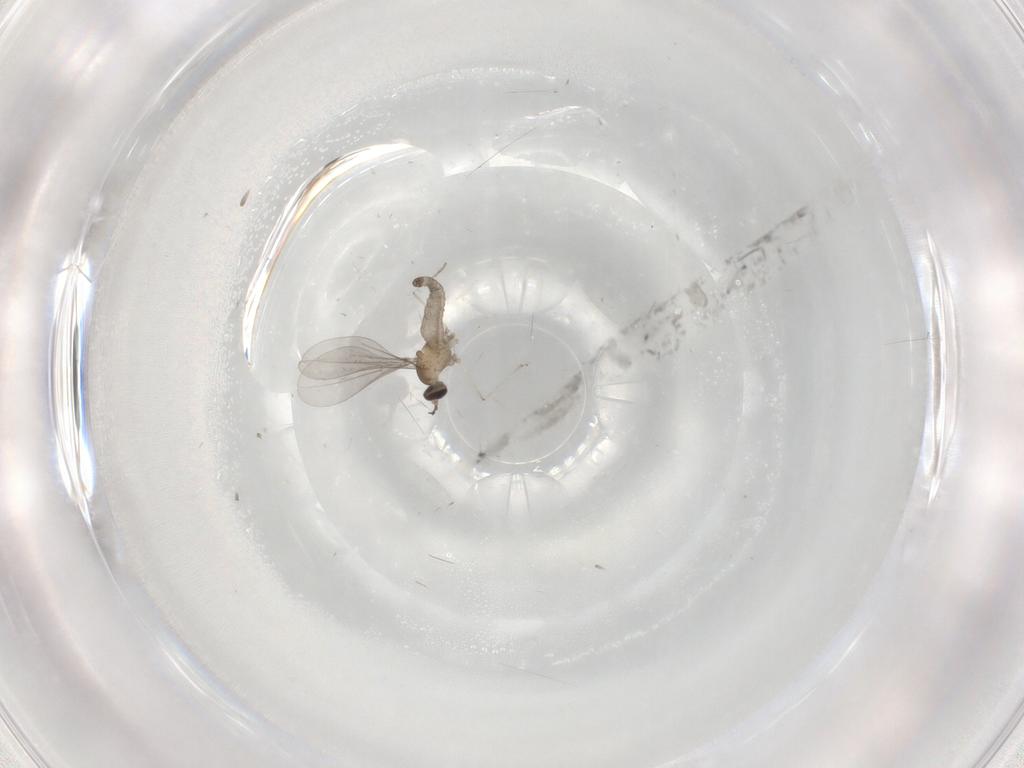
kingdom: Animalia
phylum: Arthropoda
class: Insecta
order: Diptera
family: Cecidomyiidae
